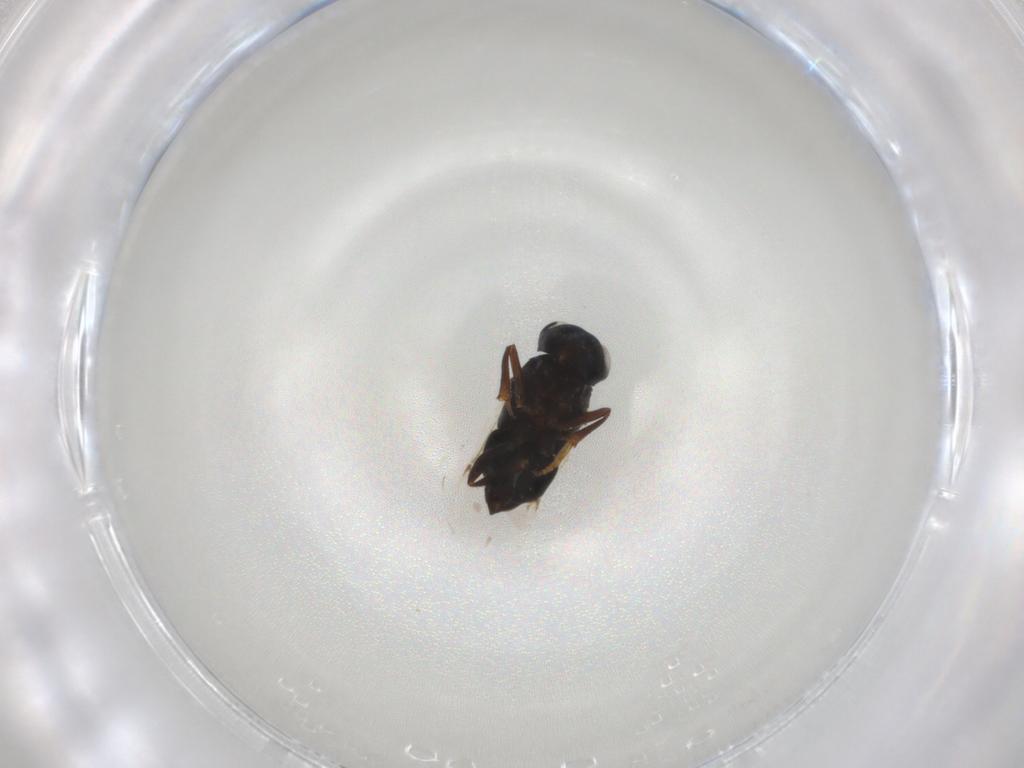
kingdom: Animalia
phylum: Arthropoda
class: Insecta
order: Hymenoptera
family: Encyrtidae
